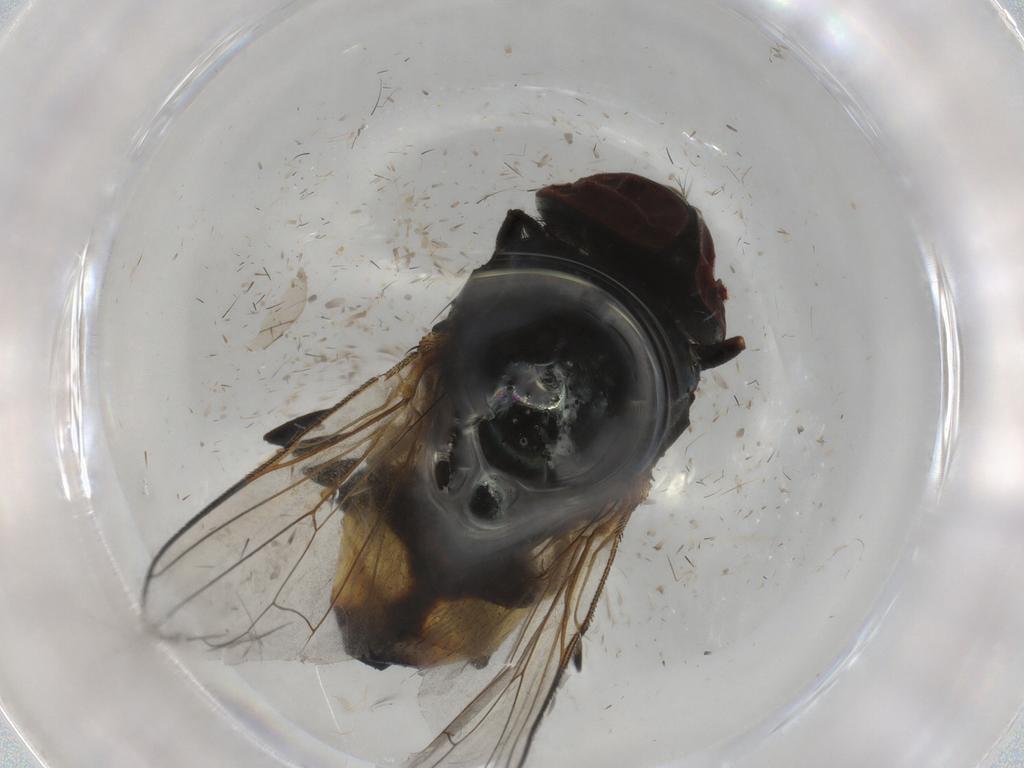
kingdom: Animalia
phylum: Arthropoda
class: Insecta
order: Diptera
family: Muscidae
